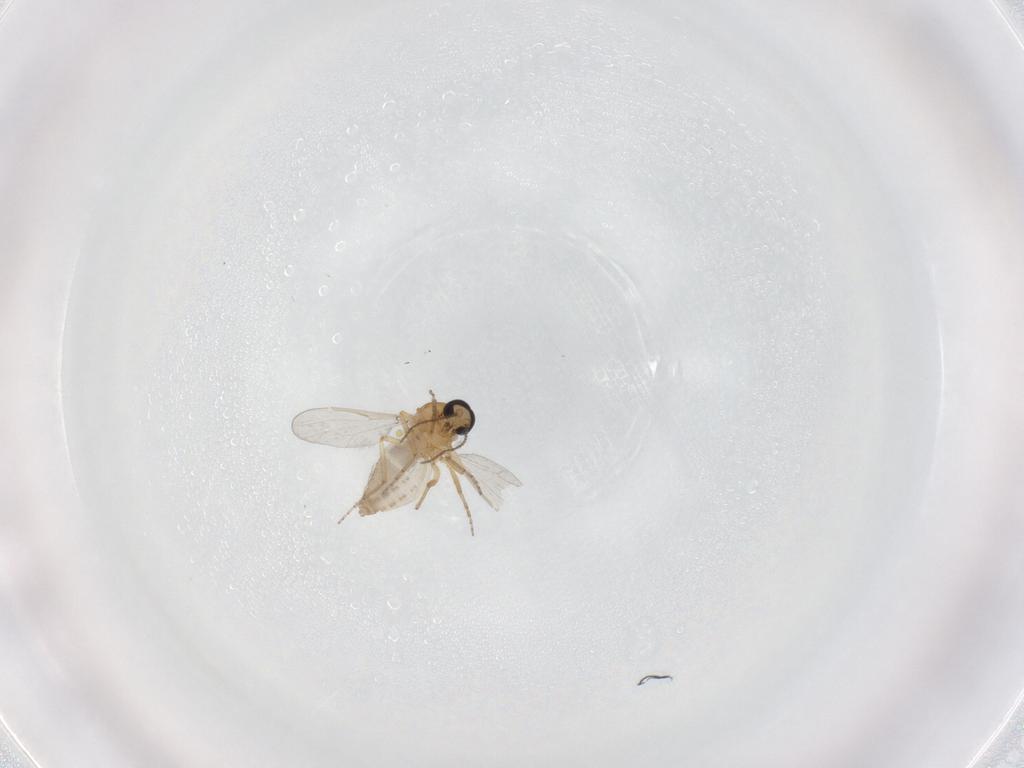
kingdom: Animalia
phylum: Arthropoda
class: Insecta
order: Diptera
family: Ceratopogonidae
